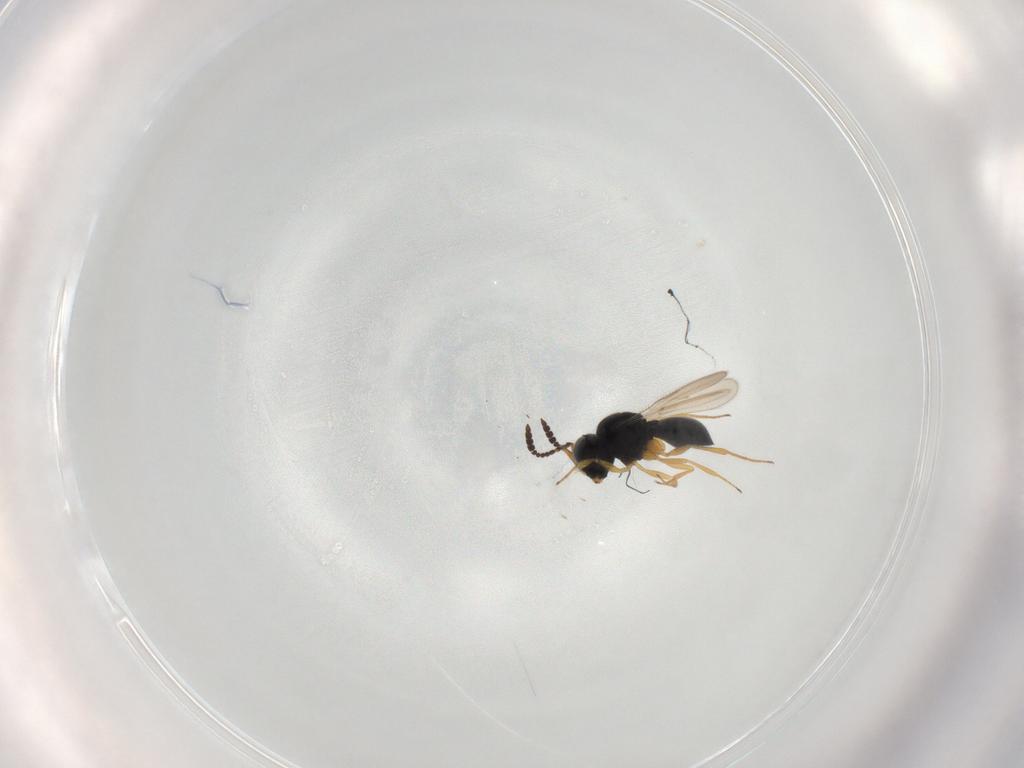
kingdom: Animalia
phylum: Arthropoda
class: Insecta
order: Hymenoptera
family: Scelionidae
